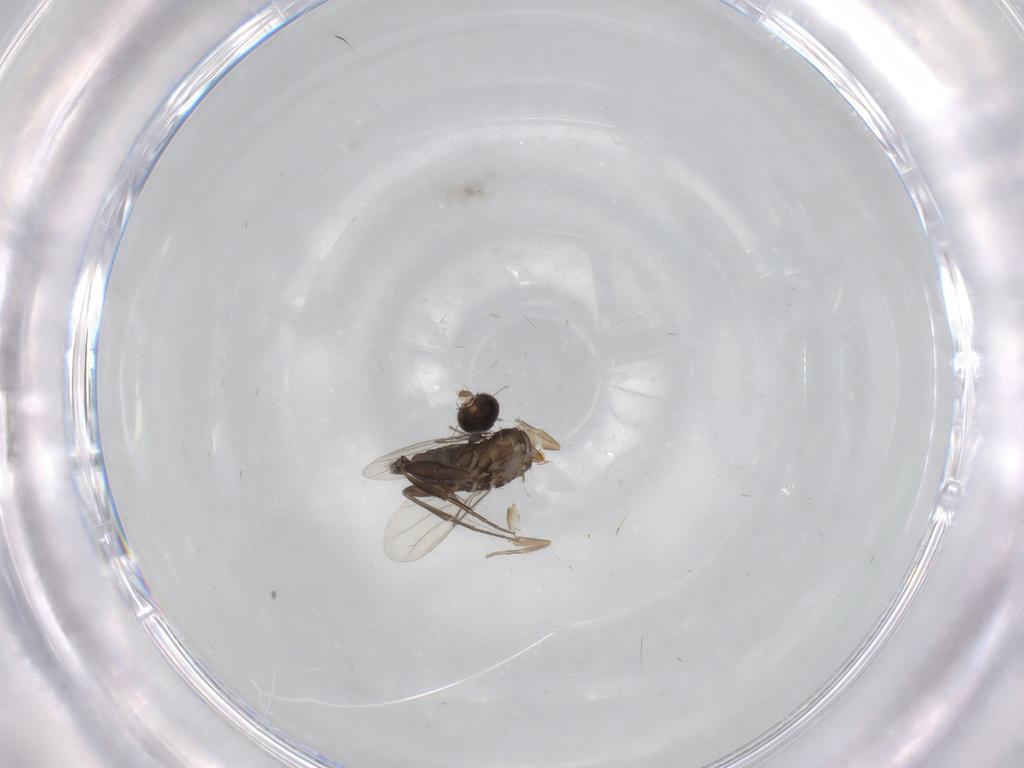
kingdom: Animalia
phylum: Arthropoda
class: Insecta
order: Diptera
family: Phoridae
